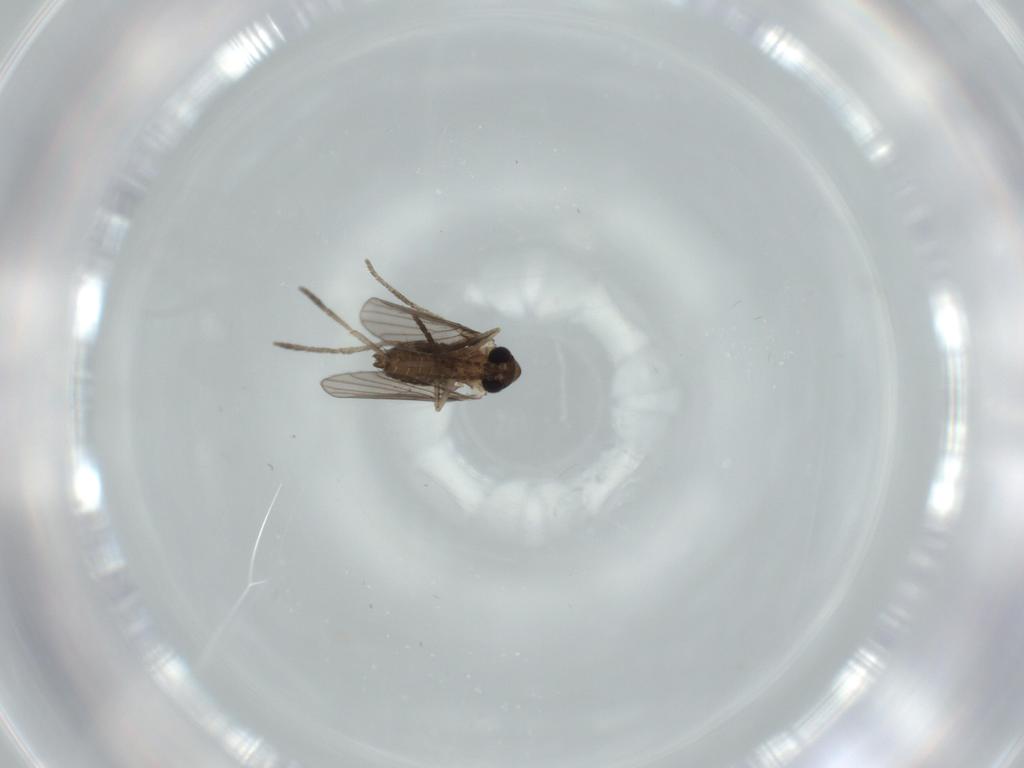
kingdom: Animalia
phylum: Arthropoda
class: Insecta
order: Diptera
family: Psychodidae
